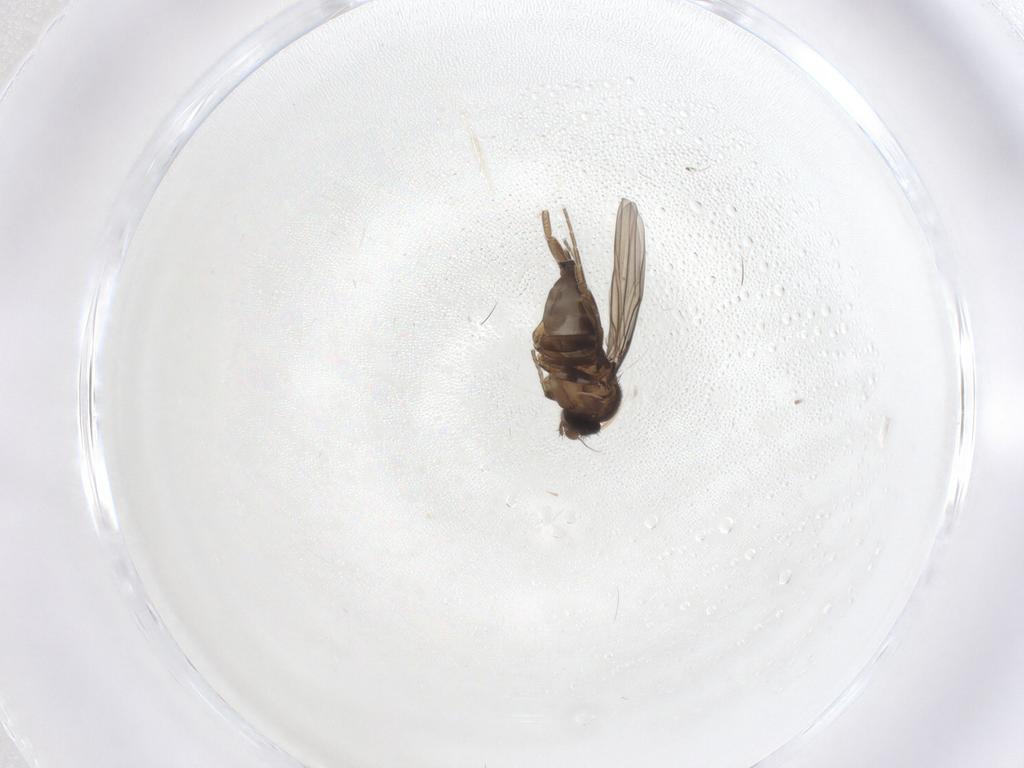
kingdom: Animalia
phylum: Arthropoda
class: Insecta
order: Diptera
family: Phoridae
